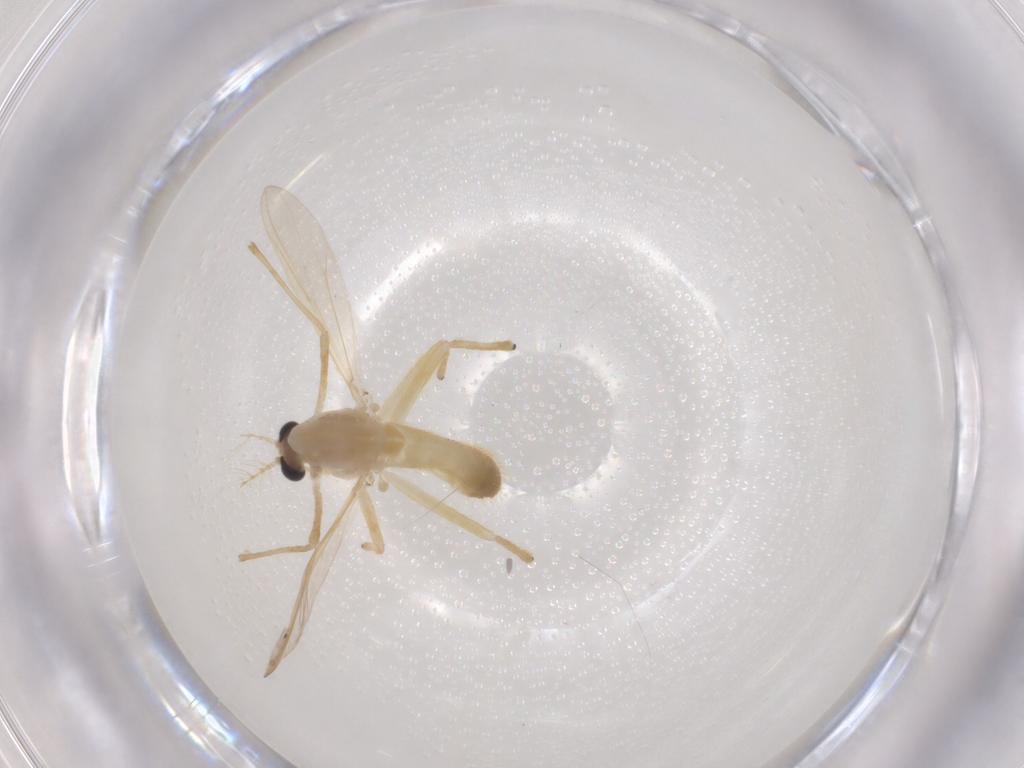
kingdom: Animalia
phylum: Arthropoda
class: Insecta
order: Diptera
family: Chironomidae
